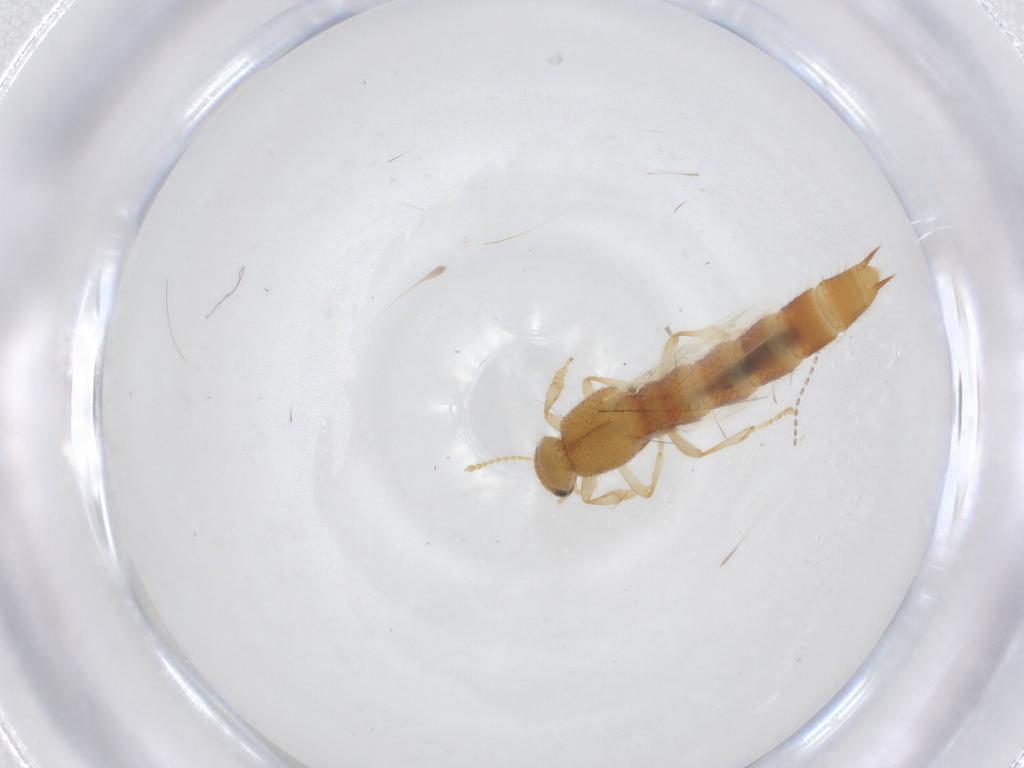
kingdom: Animalia
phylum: Arthropoda
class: Insecta
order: Coleoptera
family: Staphylinidae
